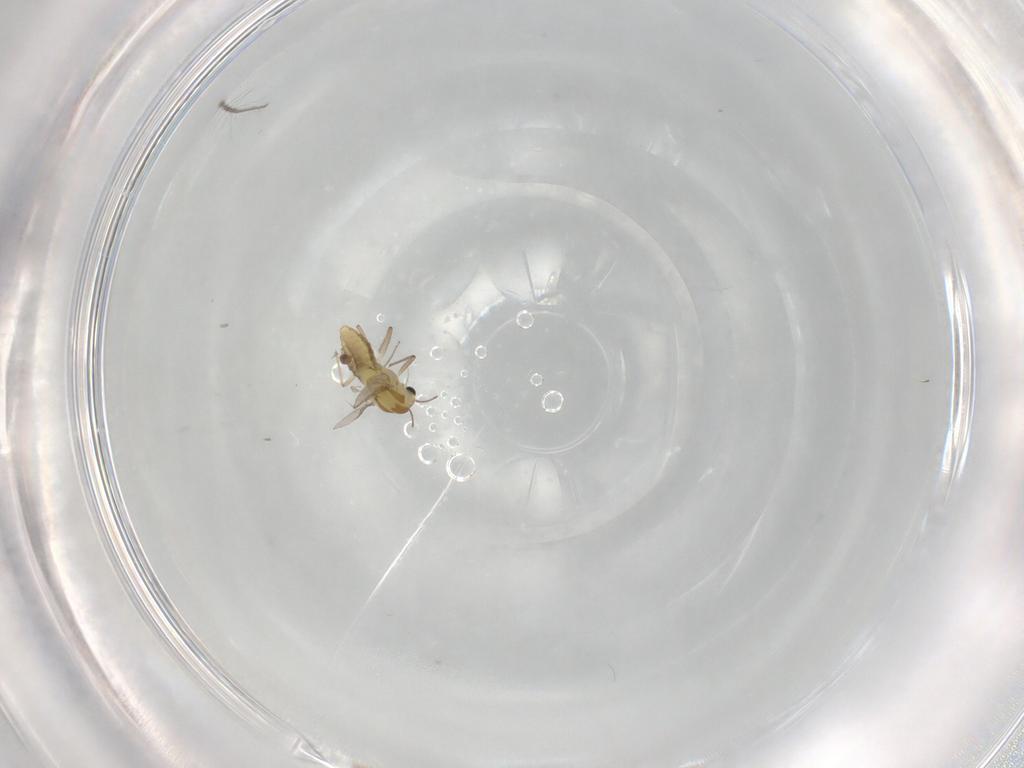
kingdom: Animalia
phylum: Arthropoda
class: Insecta
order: Diptera
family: Chironomidae
